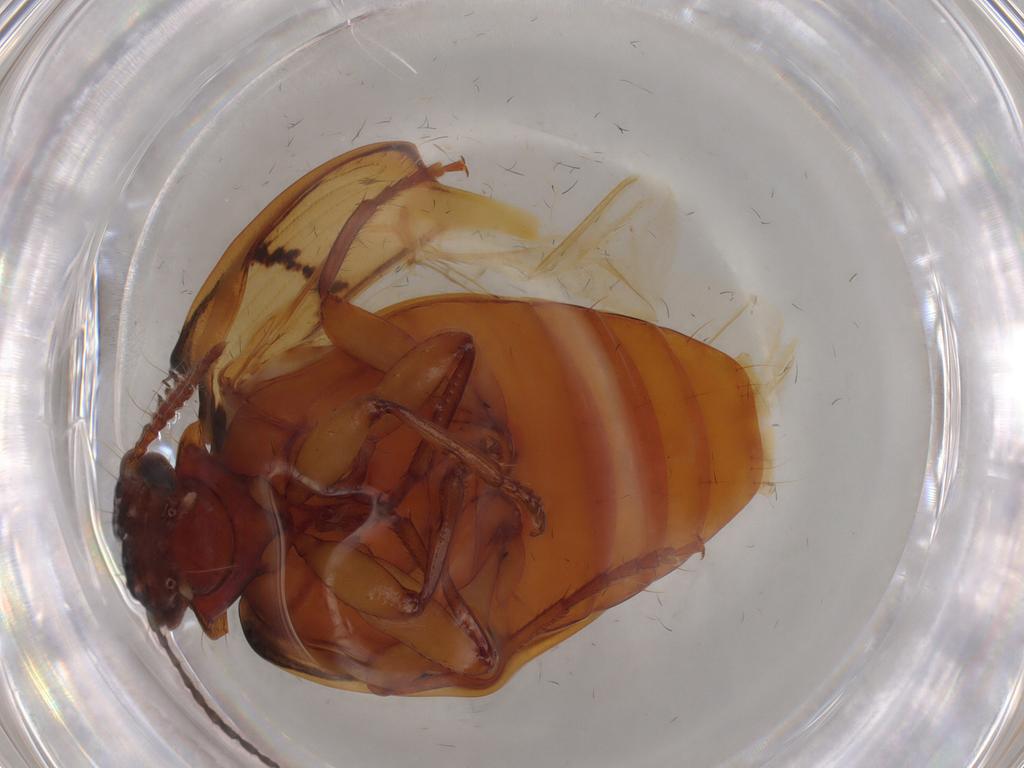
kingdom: Animalia
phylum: Arthropoda
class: Insecta
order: Coleoptera
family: Carabidae
